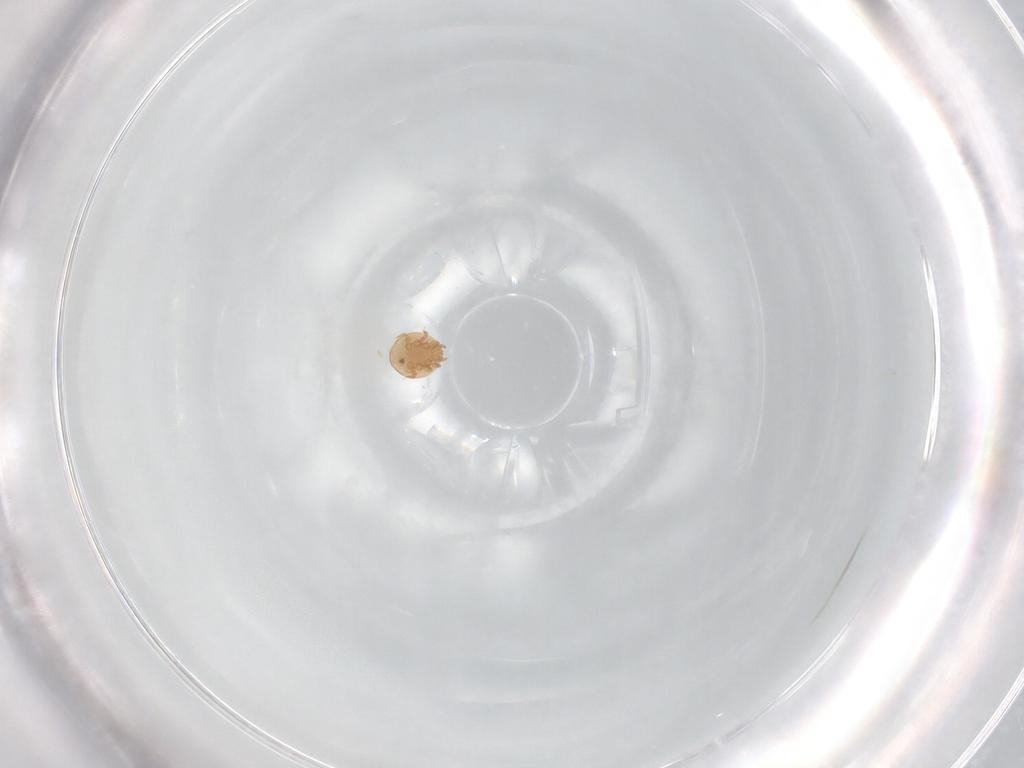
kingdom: Animalia
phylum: Arthropoda
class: Arachnida
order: Mesostigmata
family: Trematuridae
